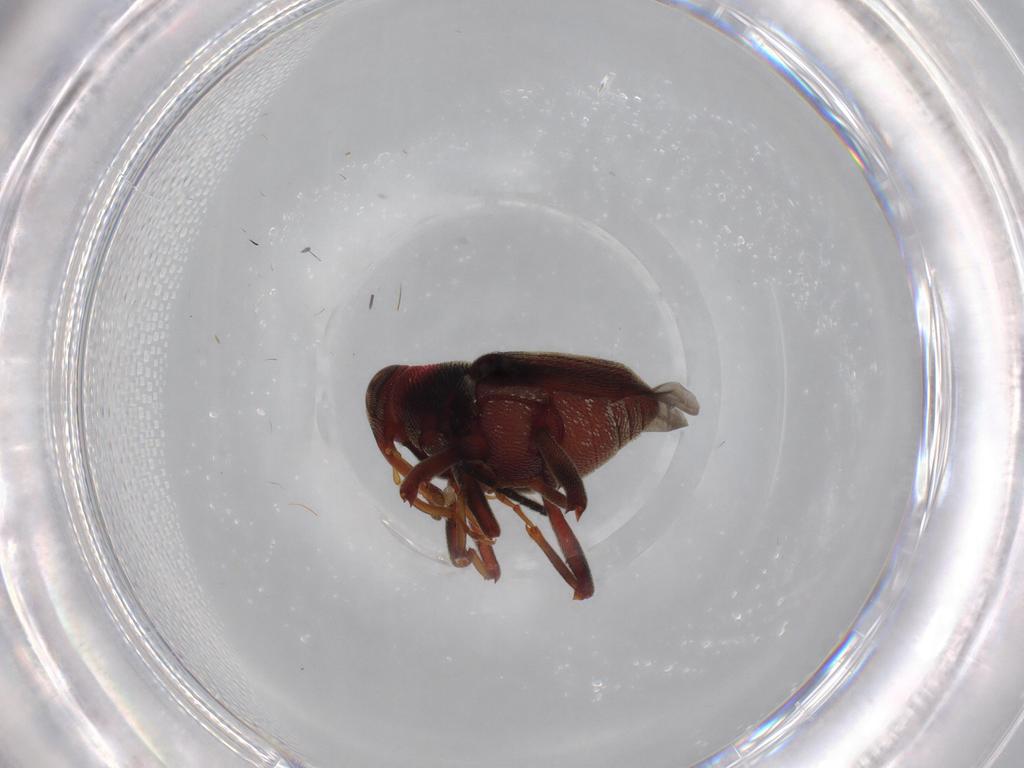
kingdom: Animalia
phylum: Arthropoda
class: Insecta
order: Coleoptera
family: Curculionidae
